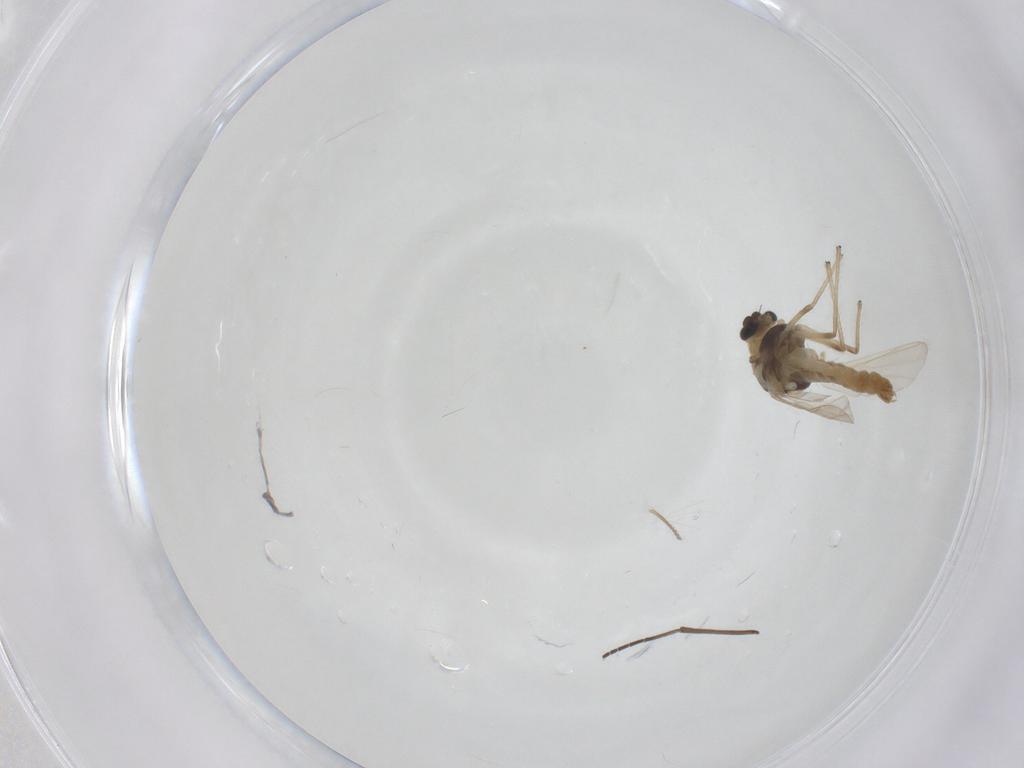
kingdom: Animalia
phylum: Arthropoda
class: Insecta
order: Diptera
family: Chironomidae
